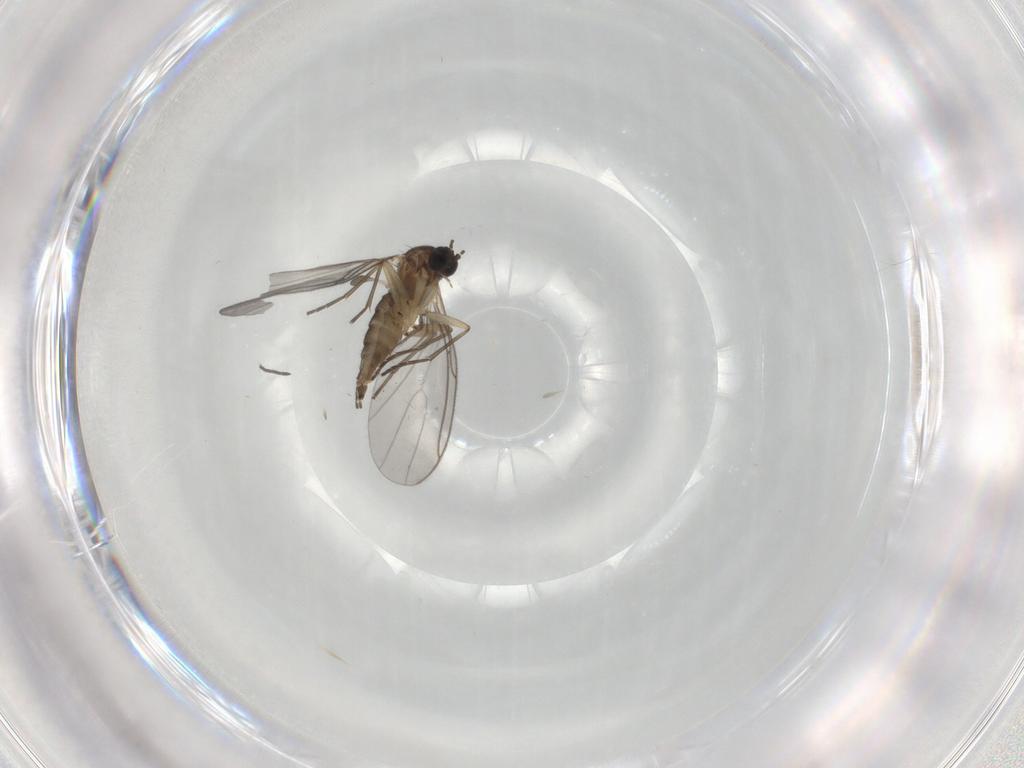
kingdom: Animalia
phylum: Arthropoda
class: Insecta
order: Diptera
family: Sciaridae
